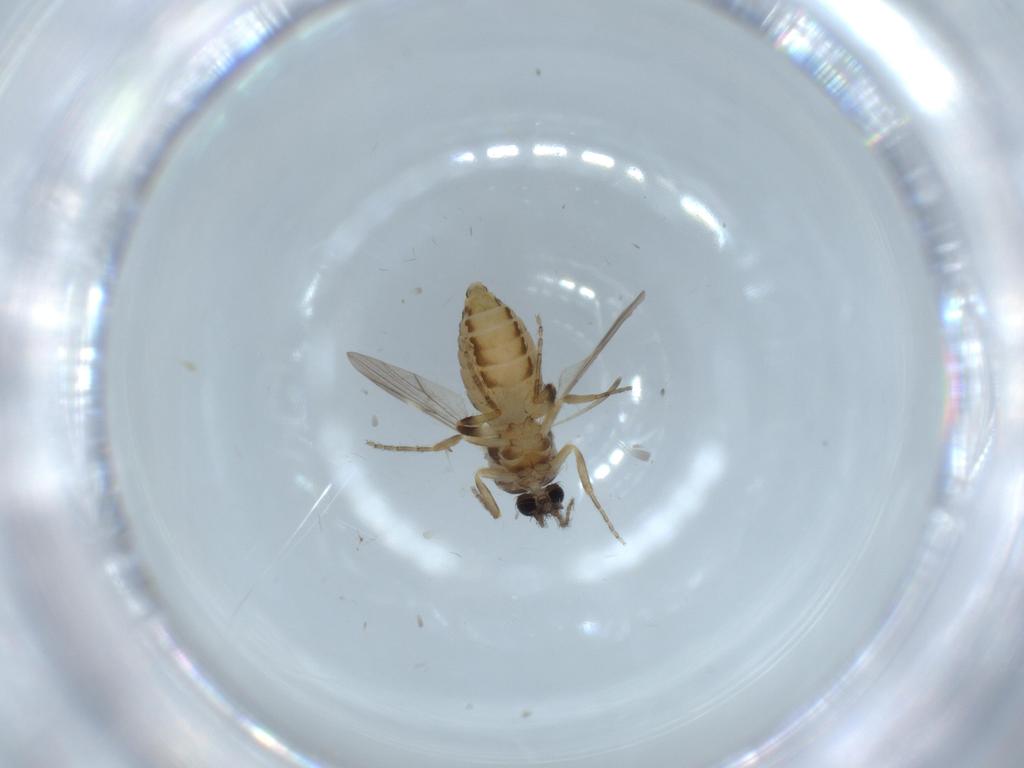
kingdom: Animalia
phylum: Arthropoda
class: Insecta
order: Diptera
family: Ceratopogonidae
